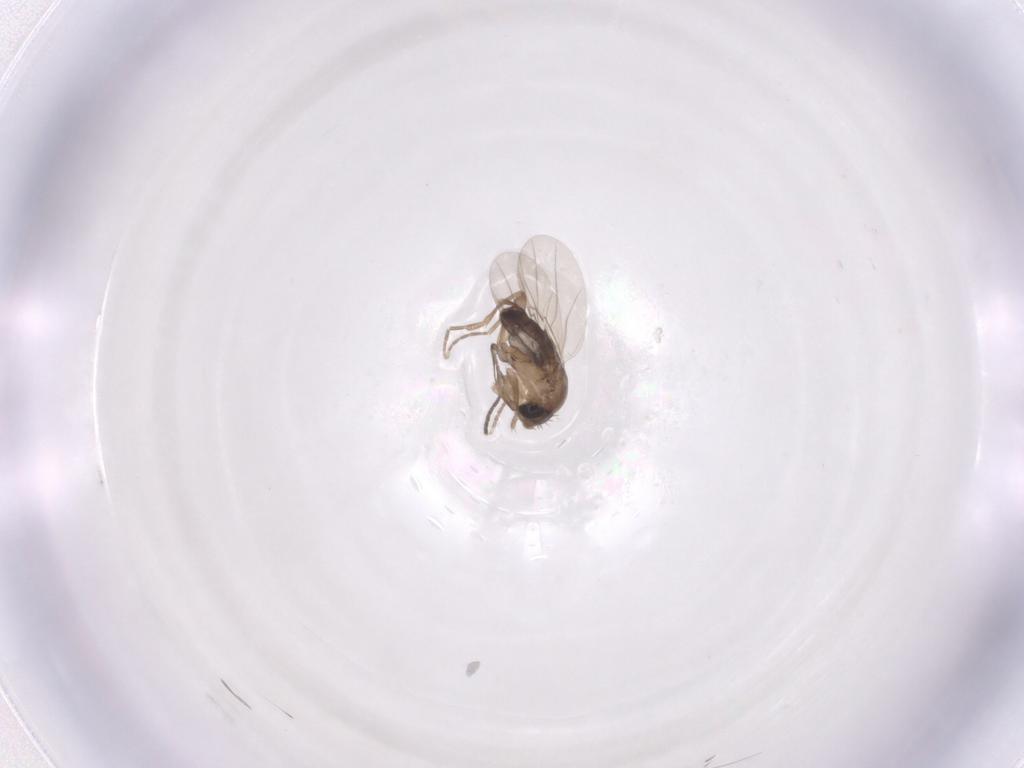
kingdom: Animalia
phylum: Arthropoda
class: Insecta
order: Diptera
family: Phoridae
